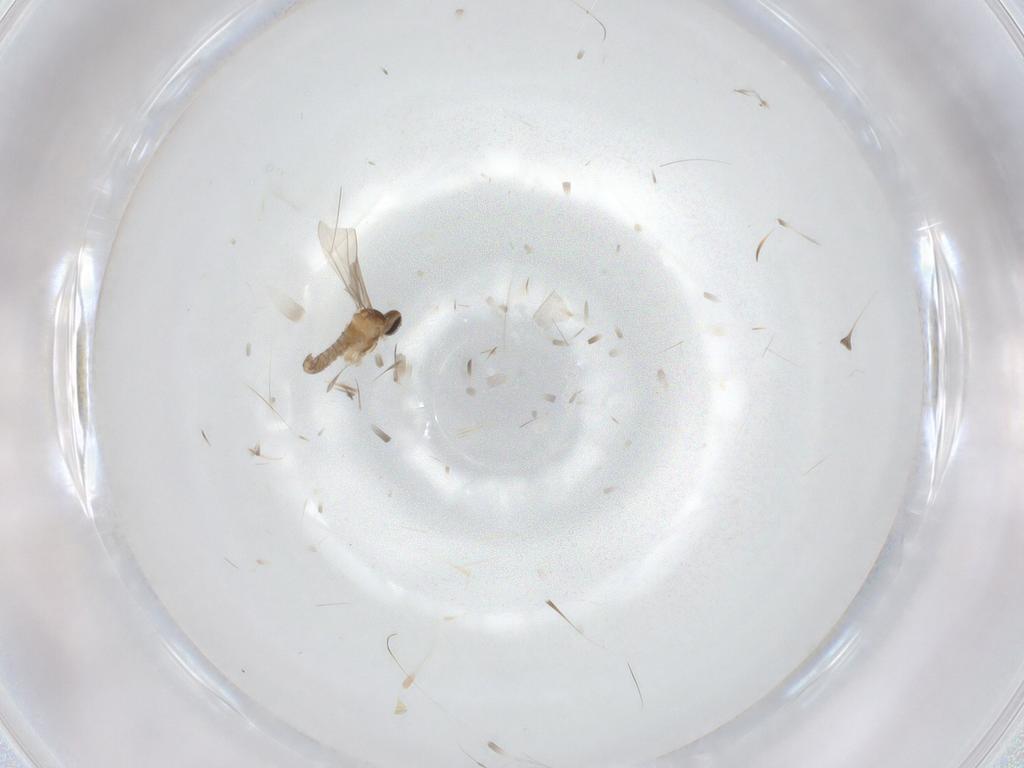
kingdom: Animalia
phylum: Arthropoda
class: Insecta
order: Diptera
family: Cecidomyiidae
